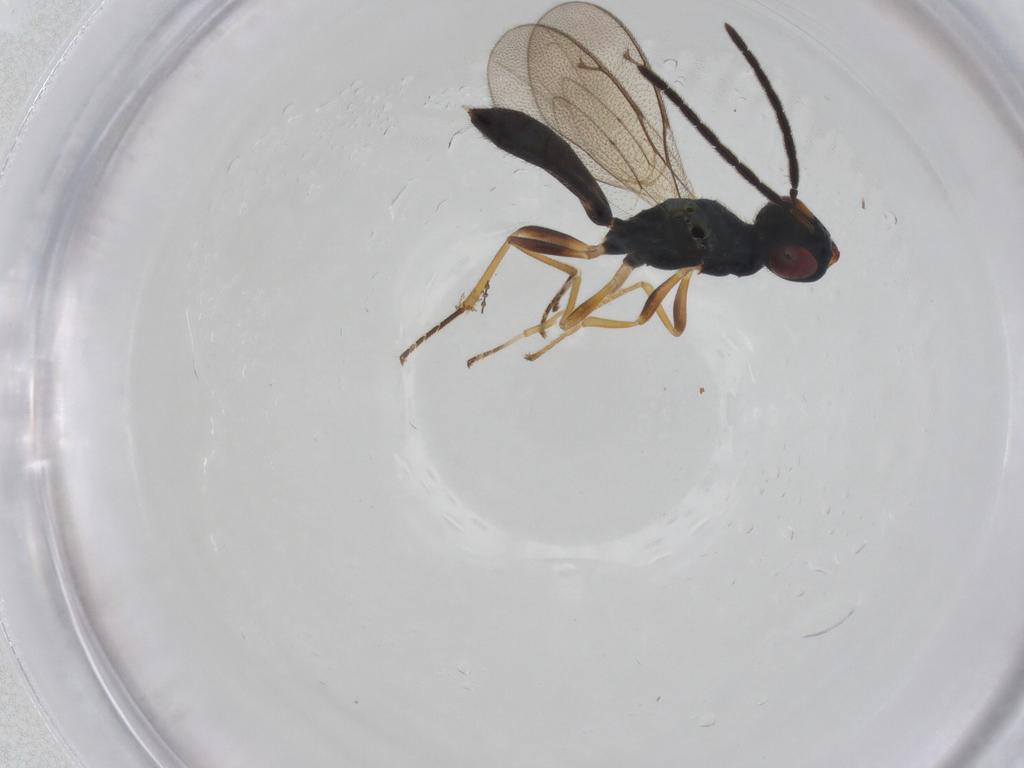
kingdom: Animalia
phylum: Arthropoda
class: Insecta
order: Hymenoptera
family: Pteromalidae
